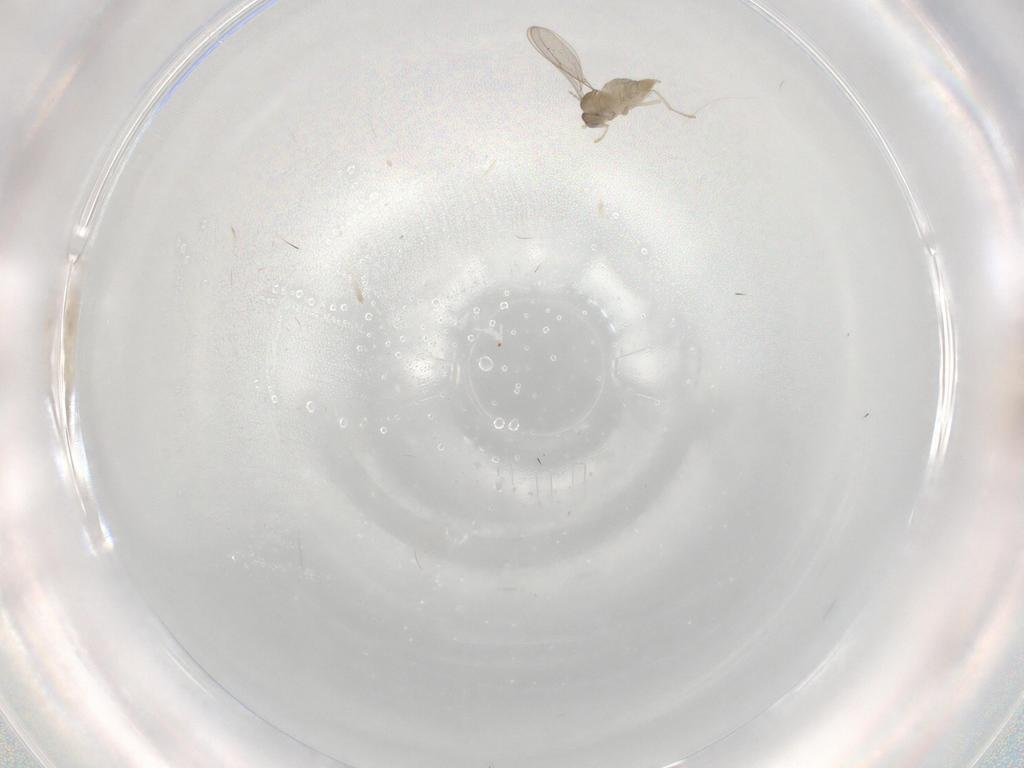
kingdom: Animalia
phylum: Arthropoda
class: Insecta
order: Diptera
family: Cecidomyiidae
